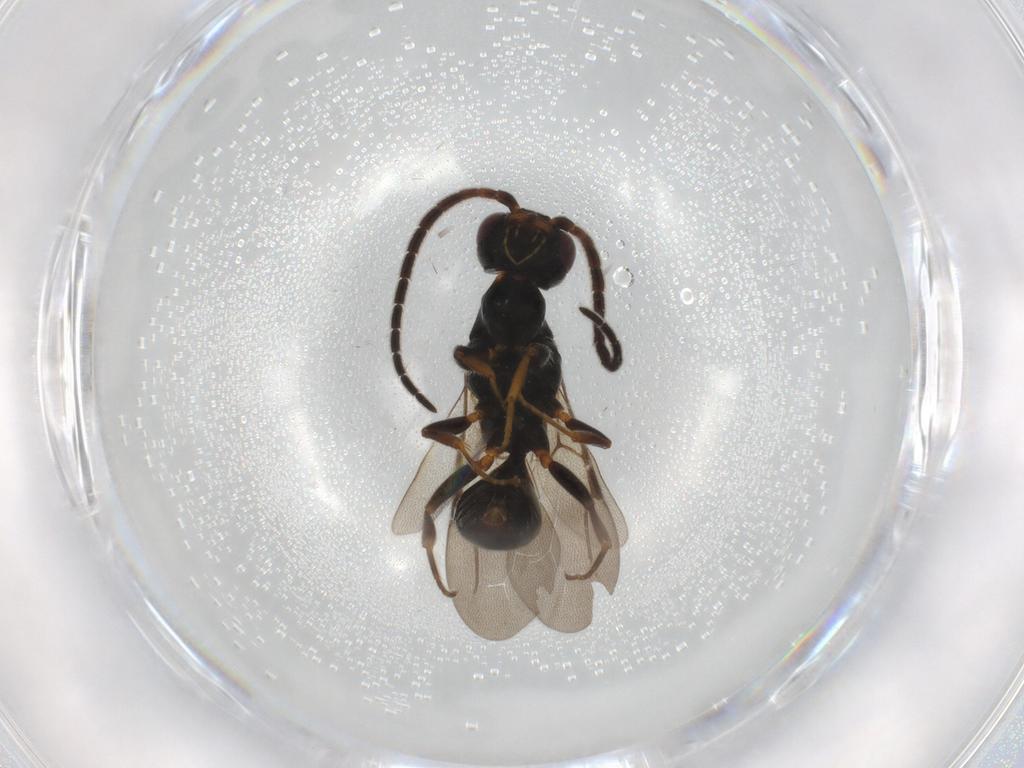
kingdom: Animalia
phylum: Arthropoda
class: Insecta
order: Hymenoptera
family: Bethylidae
